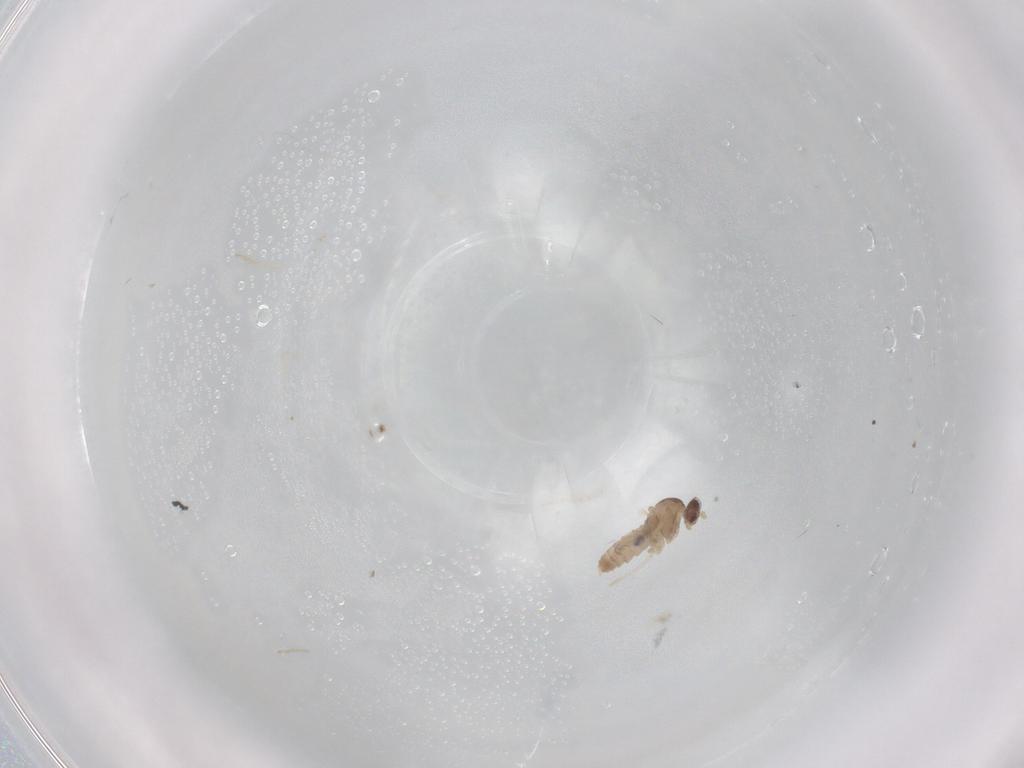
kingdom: Animalia
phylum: Arthropoda
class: Insecta
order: Diptera
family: Cecidomyiidae
